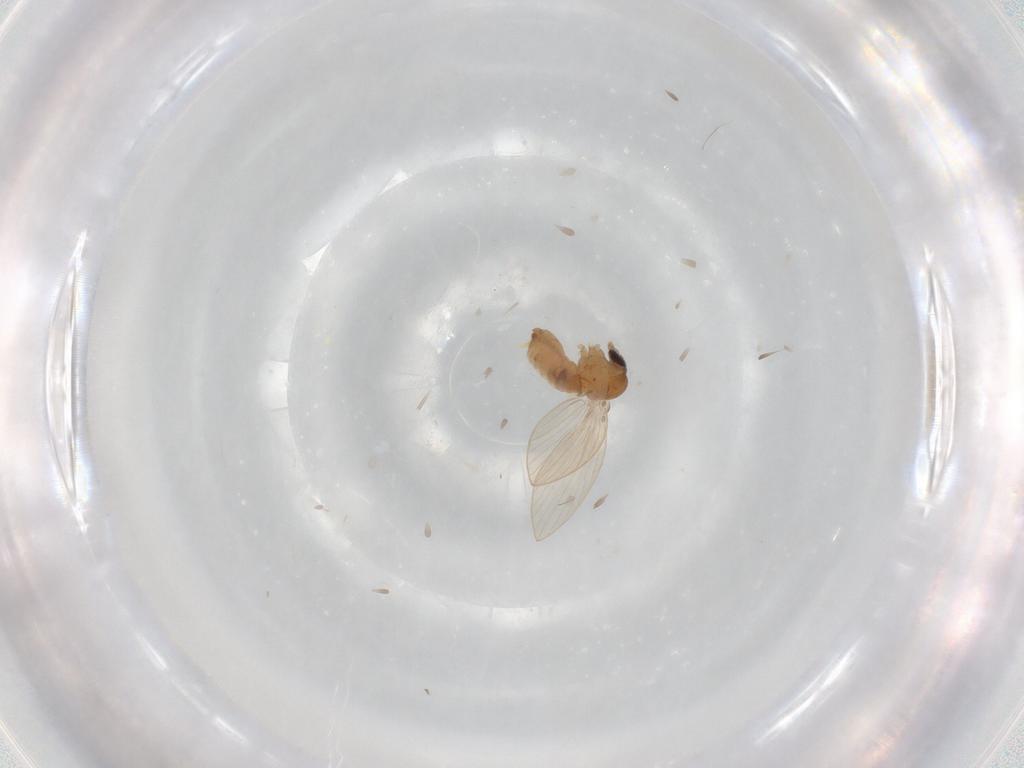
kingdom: Animalia
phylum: Arthropoda
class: Insecta
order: Diptera
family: Psychodidae
